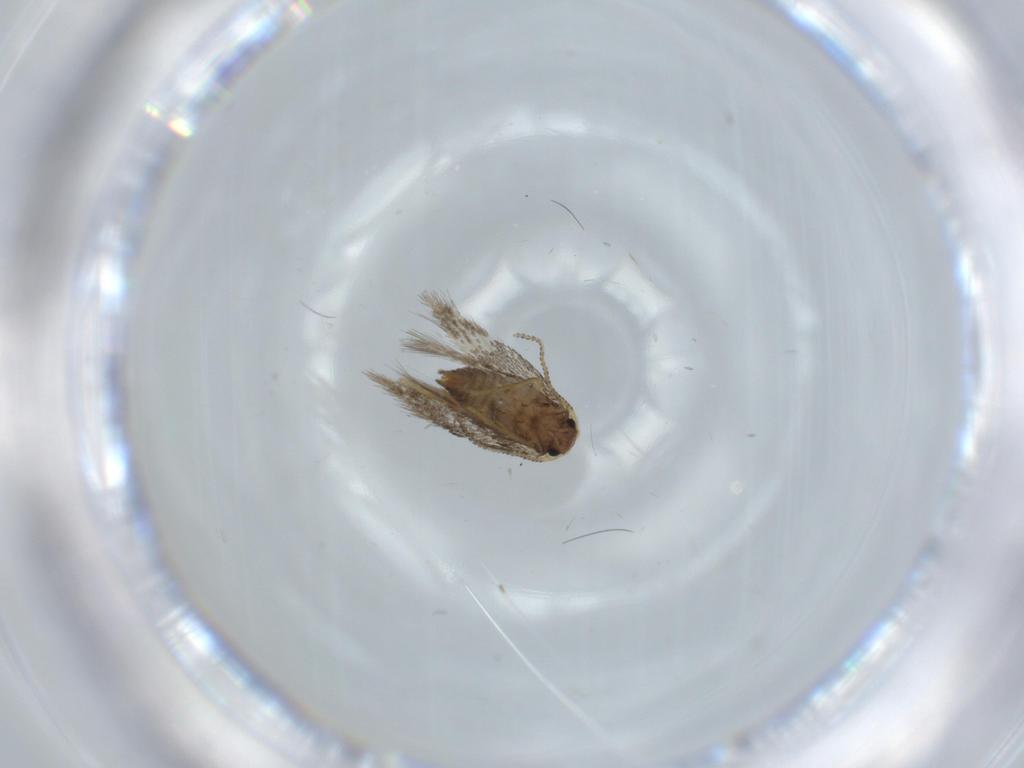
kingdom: Animalia
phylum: Arthropoda
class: Insecta
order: Lepidoptera
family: Nepticulidae
